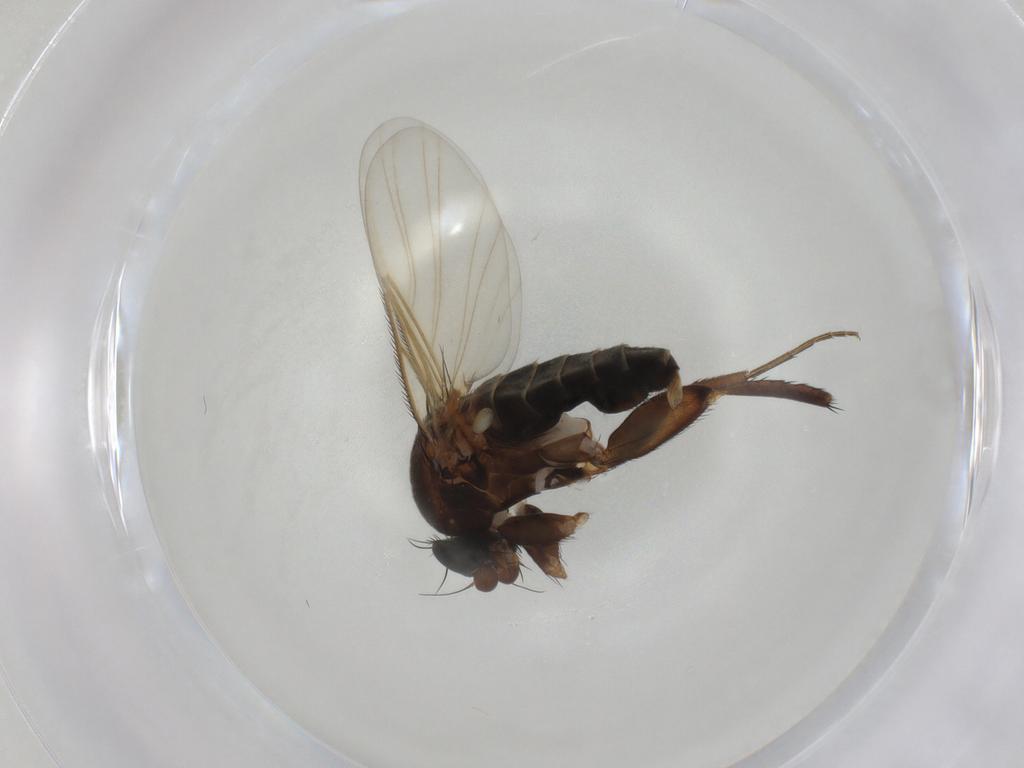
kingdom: Animalia
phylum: Arthropoda
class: Insecta
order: Diptera
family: Phoridae
